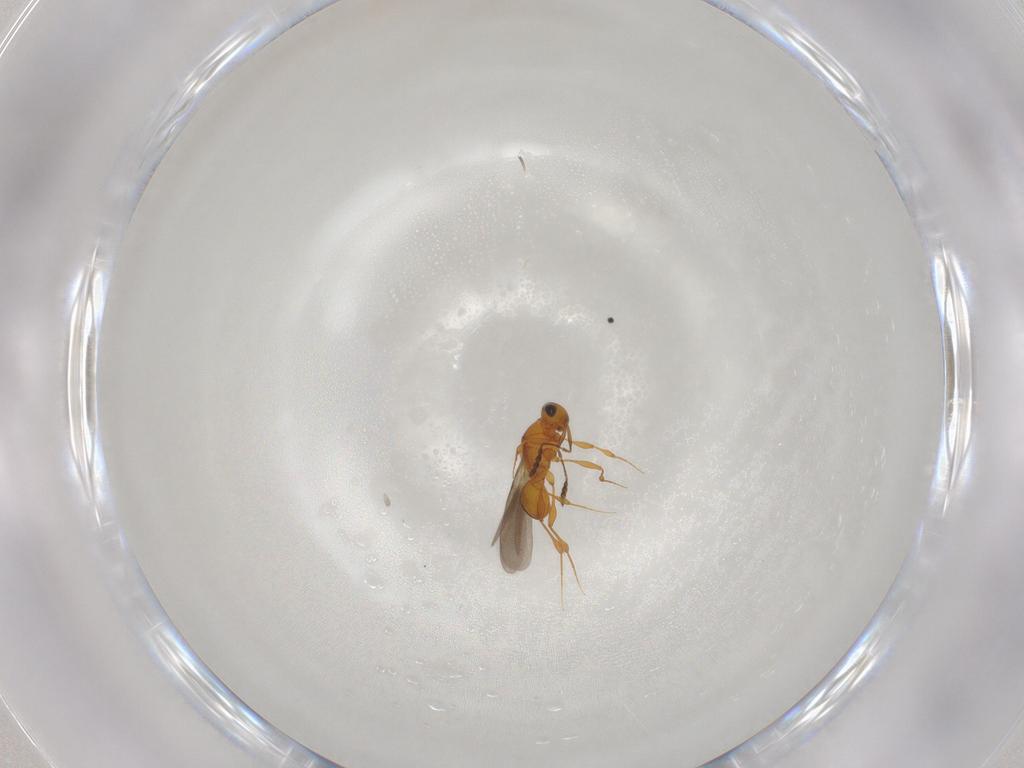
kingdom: Animalia
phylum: Arthropoda
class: Insecta
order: Hymenoptera
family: Platygastridae
